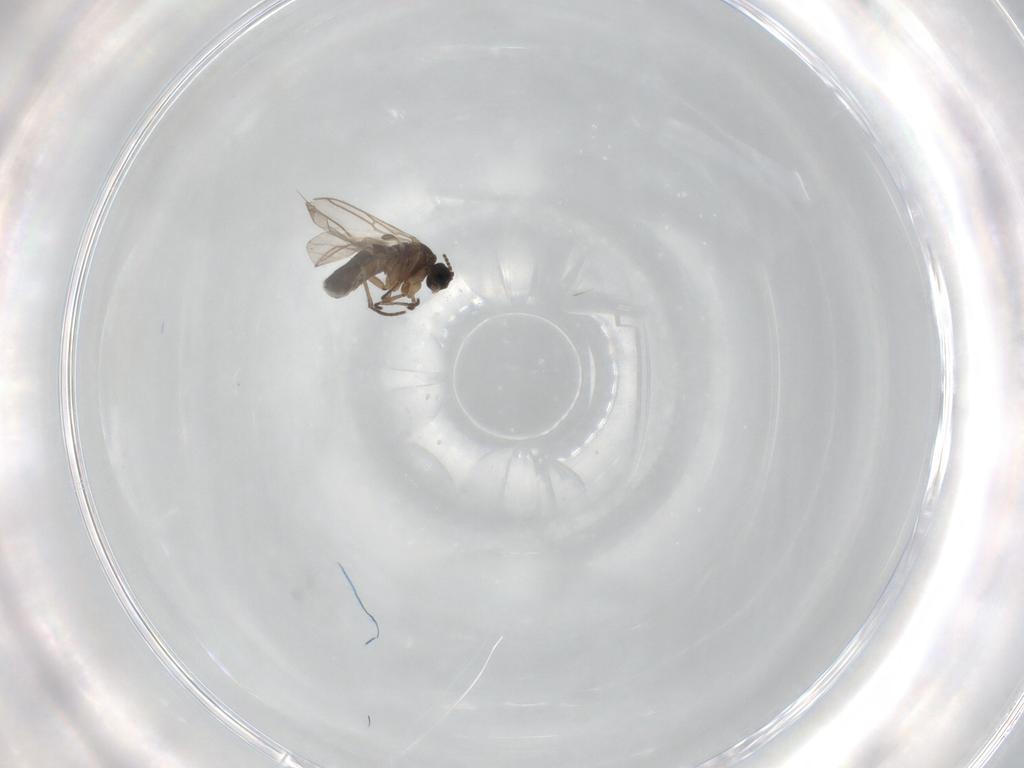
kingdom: Animalia
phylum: Arthropoda
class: Insecta
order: Diptera
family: Sciaridae
